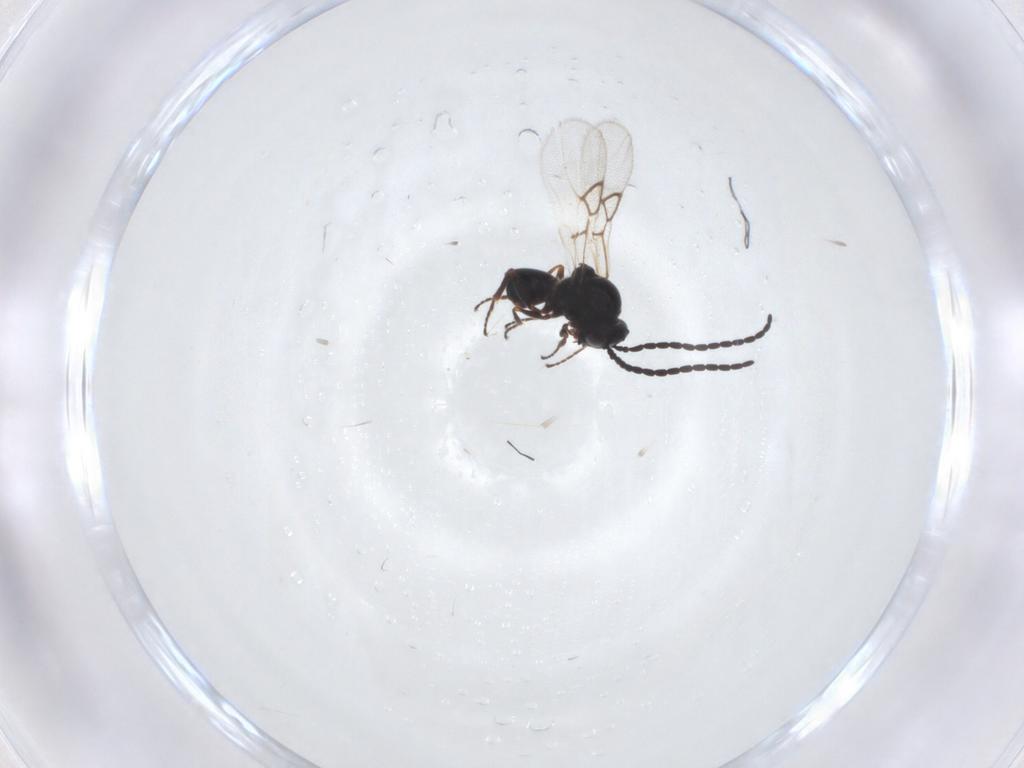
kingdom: Animalia
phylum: Arthropoda
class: Insecta
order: Hymenoptera
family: Figitidae
